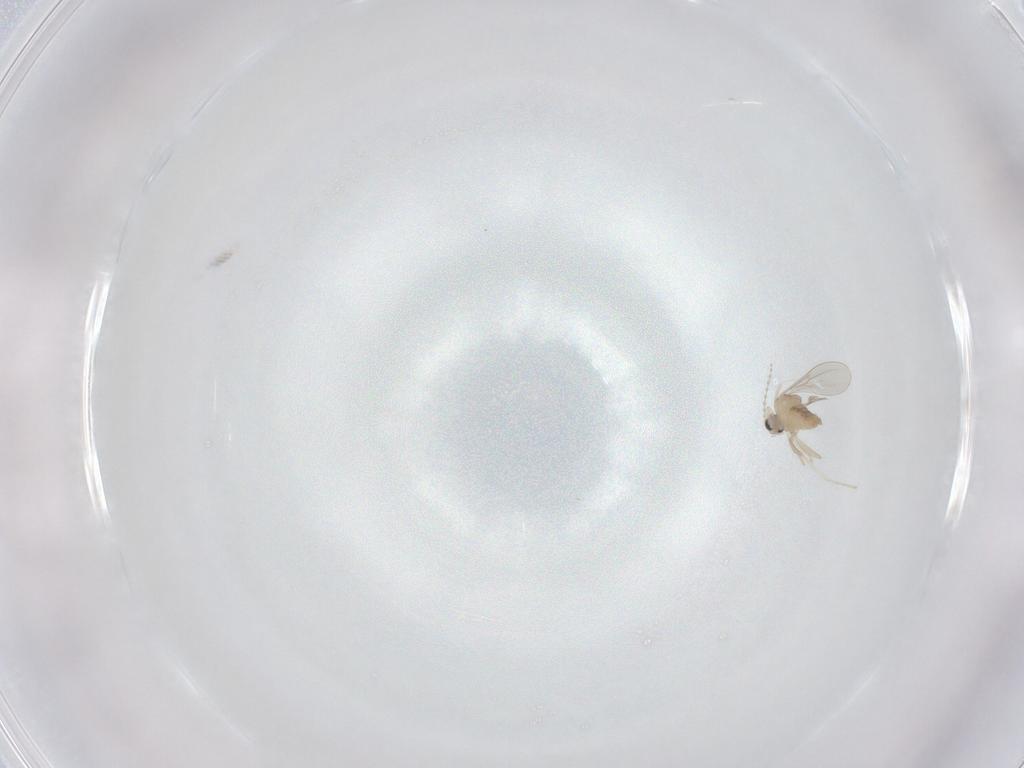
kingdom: Animalia
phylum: Arthropoda
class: Insecta
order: Diptera
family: Cecidomyiidae
